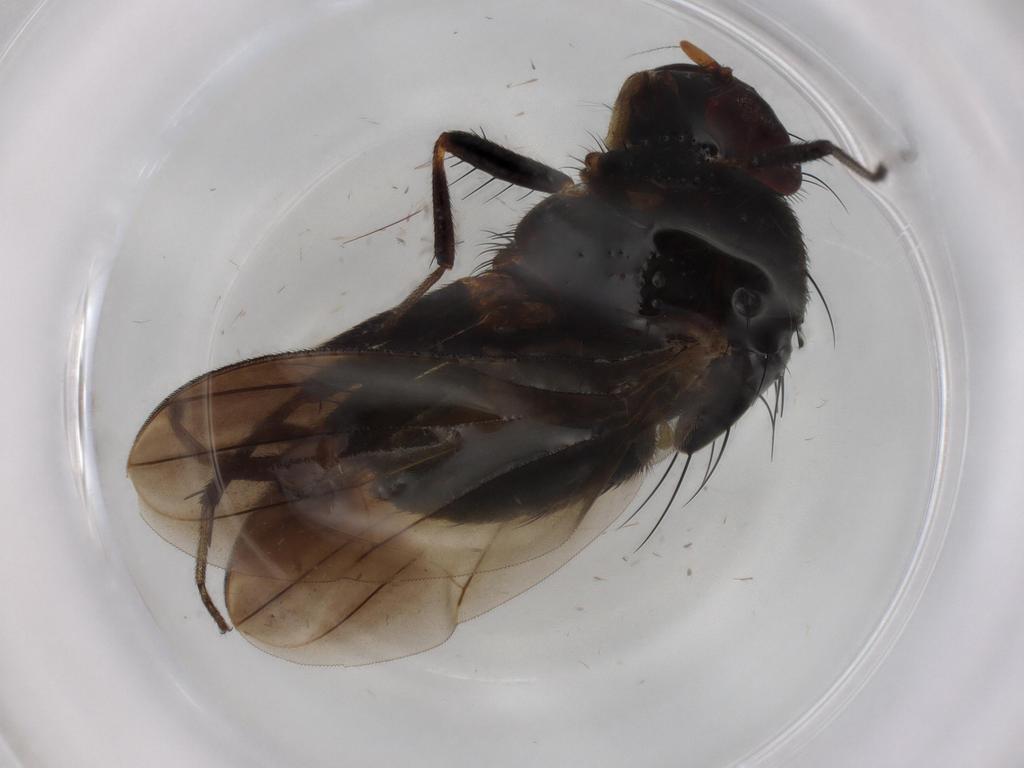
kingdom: Animalia
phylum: Arthropoda
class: Insecta
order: Diptera
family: Lauxaniidae
